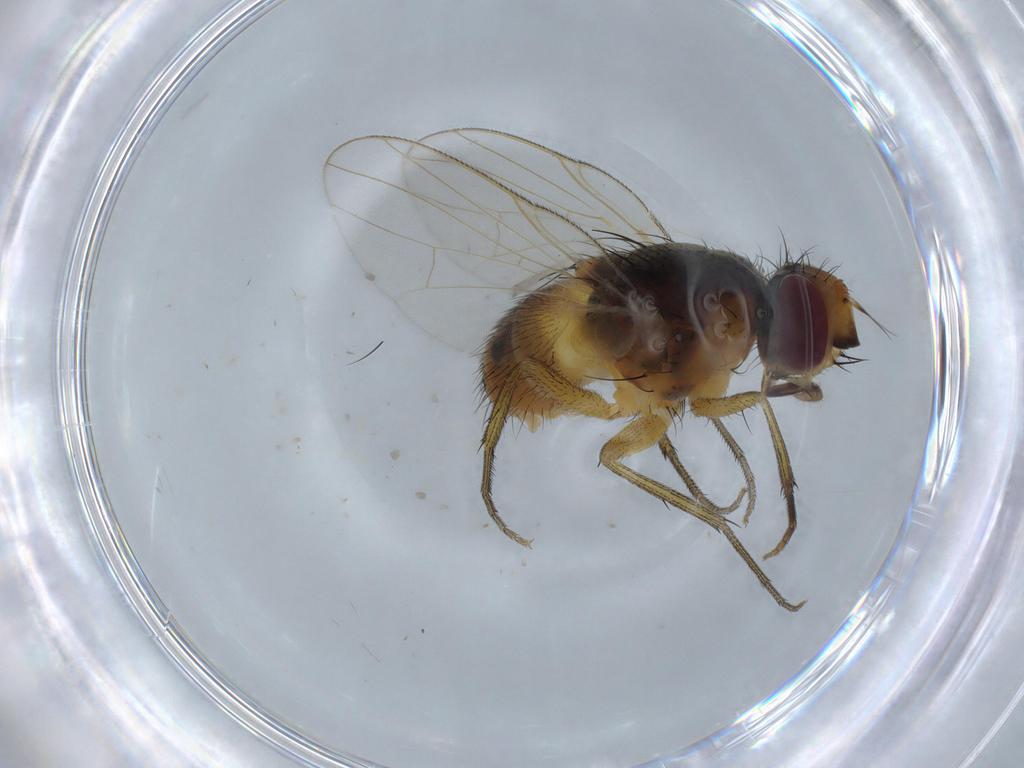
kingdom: Animalia
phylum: Arthropoda
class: Insecta
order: Diptera
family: Muscidae
